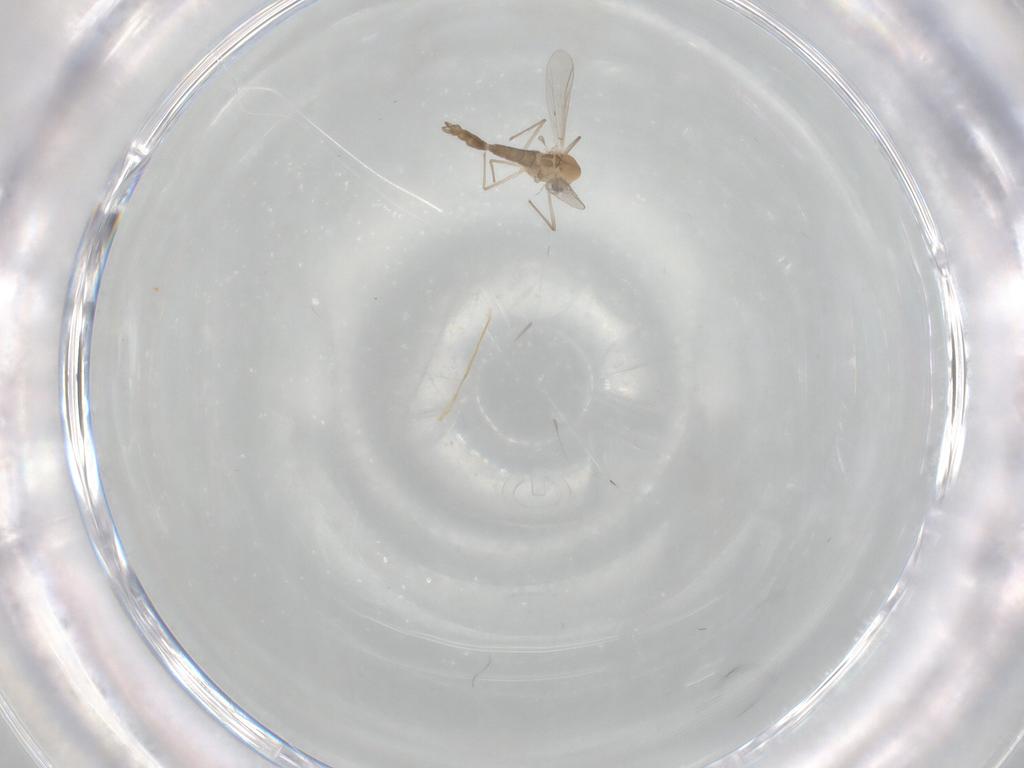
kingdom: Animalia
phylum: Arthropoda
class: Insecta
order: Diptera
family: Chironomidae
